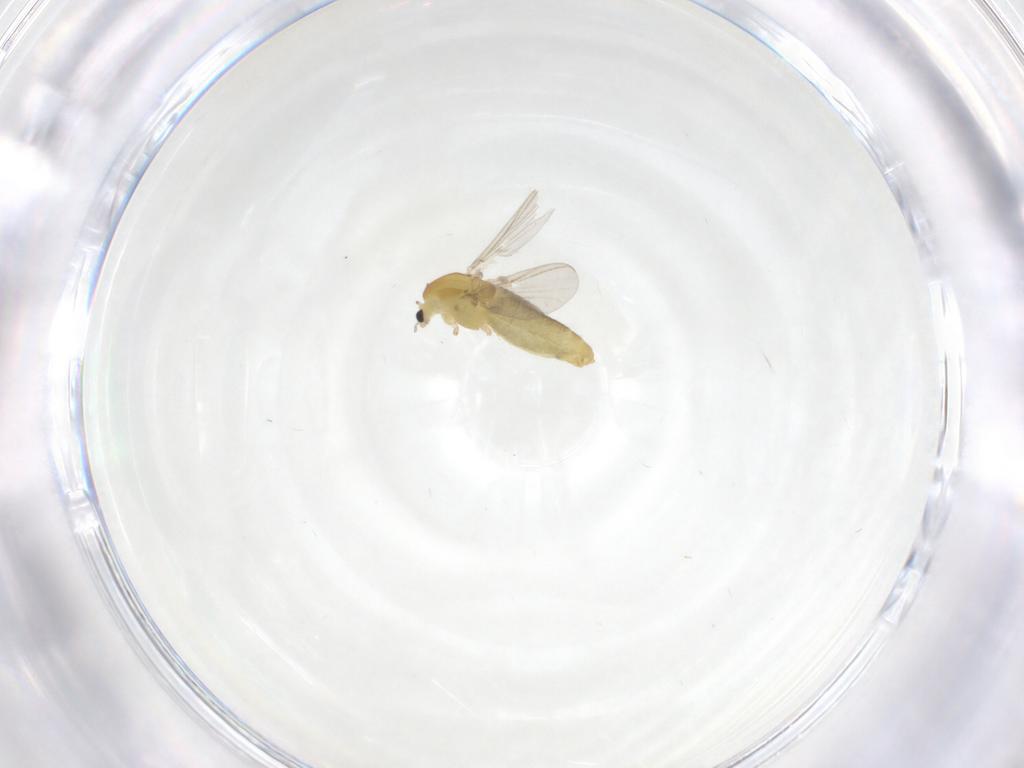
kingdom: Animalia
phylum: Arthropoda
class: Insecta
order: Diptera
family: Chironomidae
